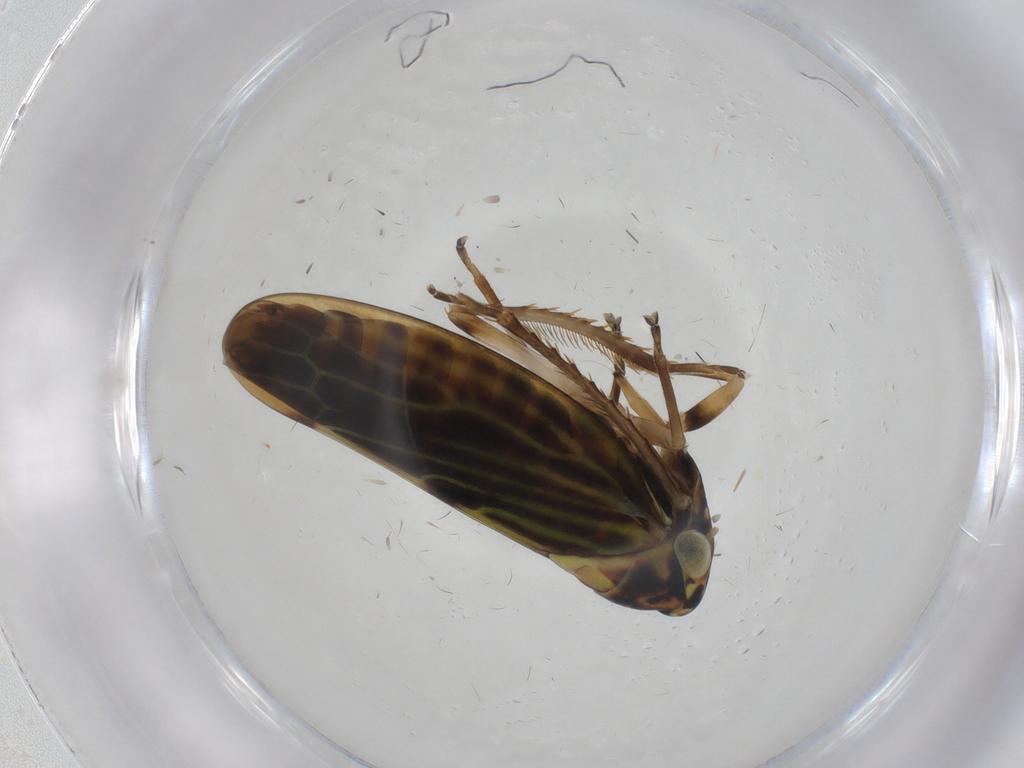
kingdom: Animalia
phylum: Arthropoda
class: Insecta
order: Hemiptera
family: Cicadellidae
